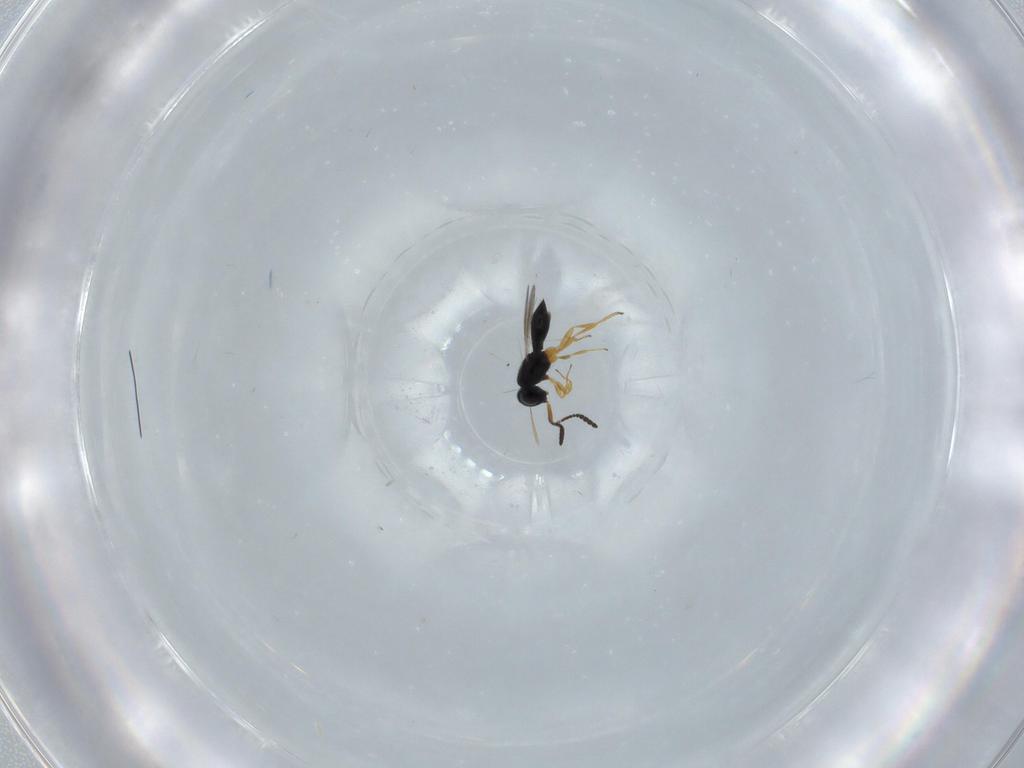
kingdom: Animalia
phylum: Arthropoda
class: Insecta
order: Hymenoptera
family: Scelionidae
